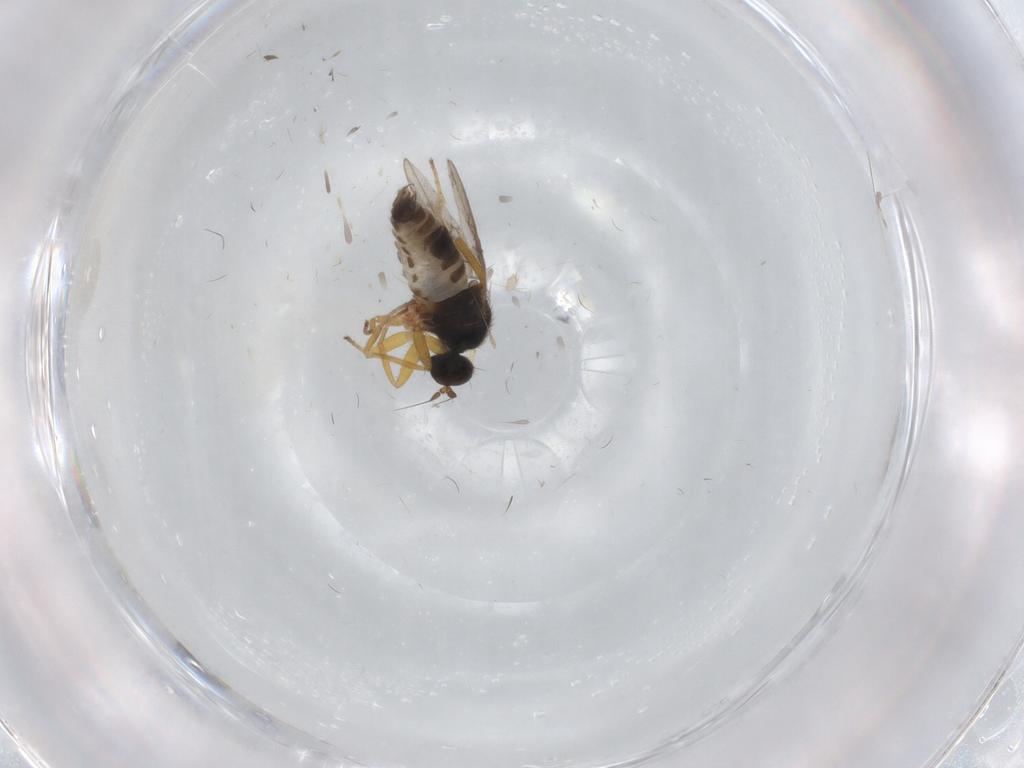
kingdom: Animalia
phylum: Arthropoda
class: Insecta
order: Diptera
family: Hybotidae
